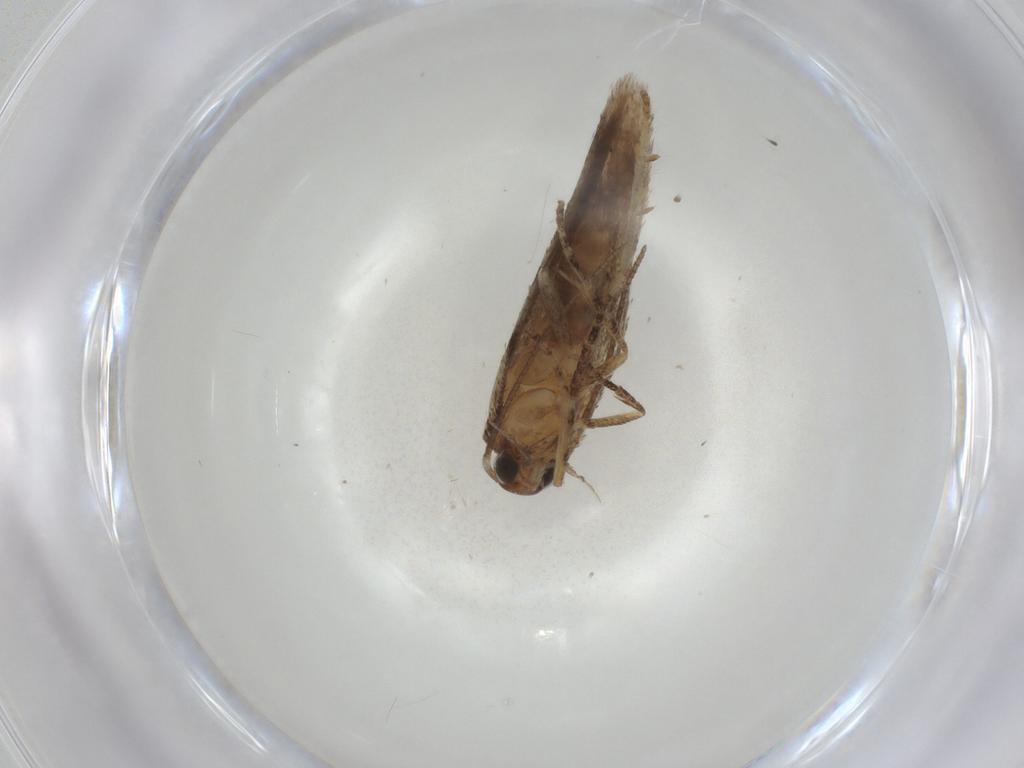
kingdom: Animalia
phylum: Arthropoda
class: Insecta
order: Lepidoptera
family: Gelechiidae
